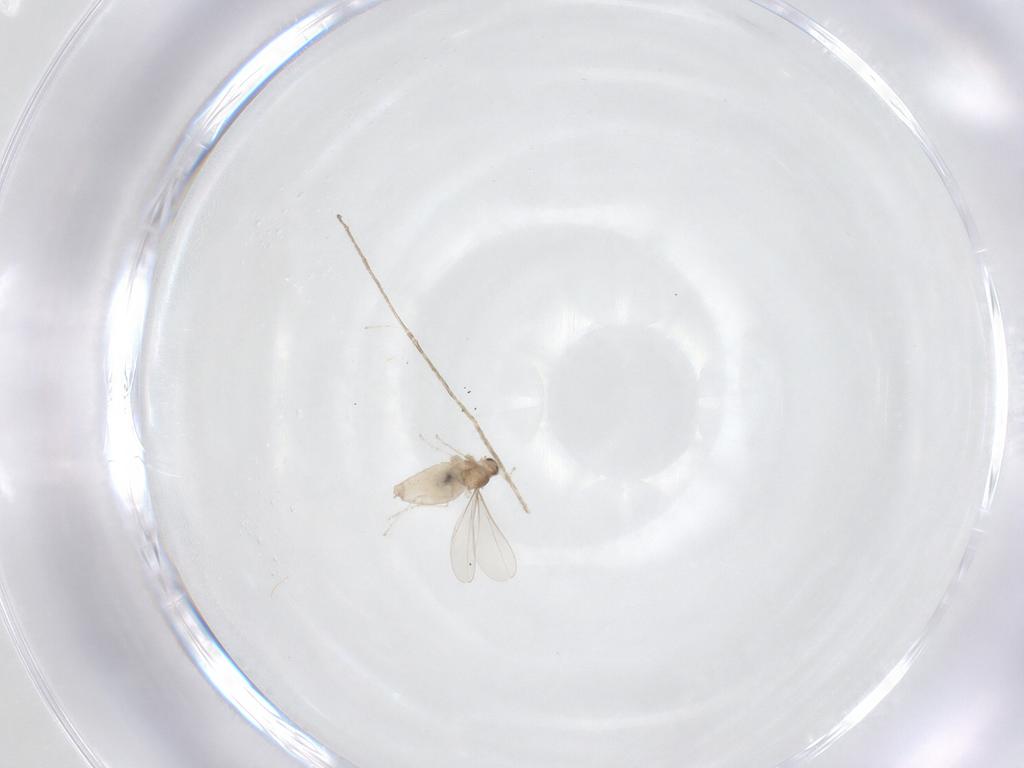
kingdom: Animalia
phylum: Arthropoda
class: Insecta
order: Diptera
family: Cecidomyiidae
